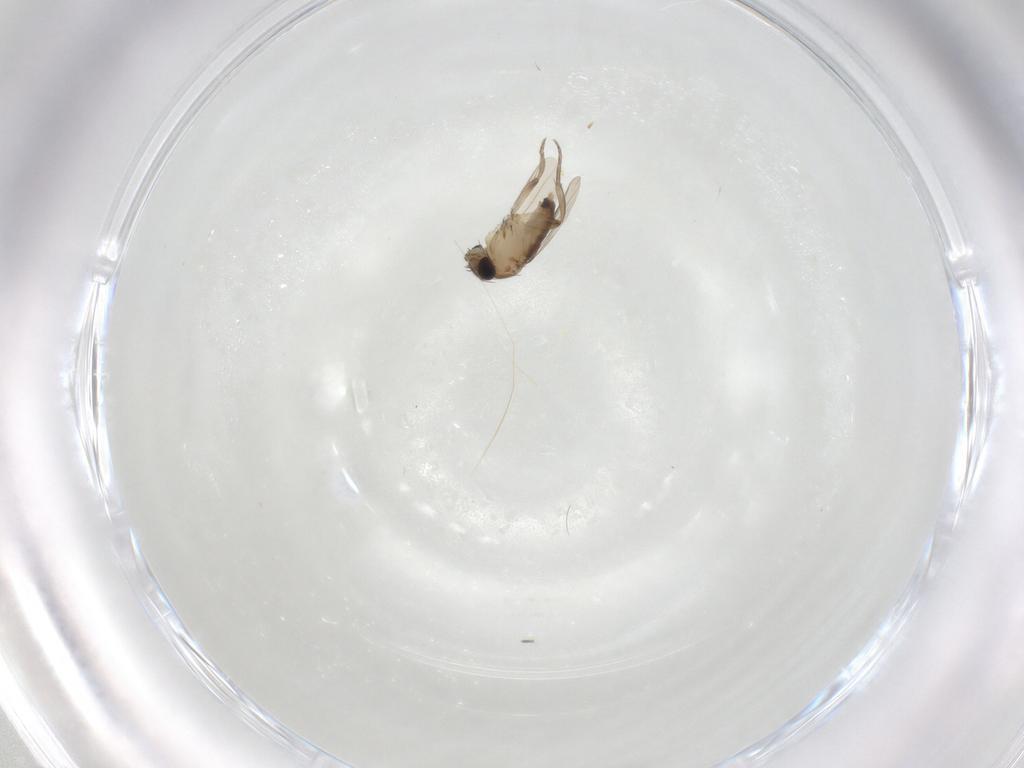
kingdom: Animalia
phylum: Arthropoda
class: Insecta
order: Diptera
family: Phoridae
